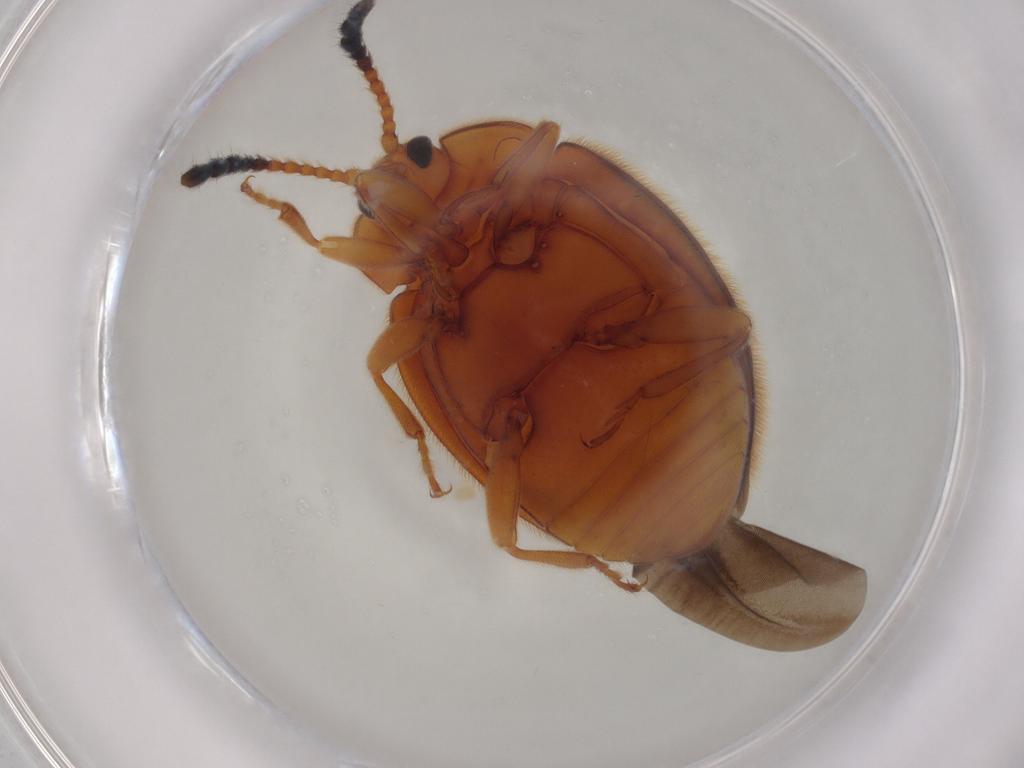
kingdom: Animalia
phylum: Arthropoda
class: Insecta
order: Coleoptera
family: Endomychidae
